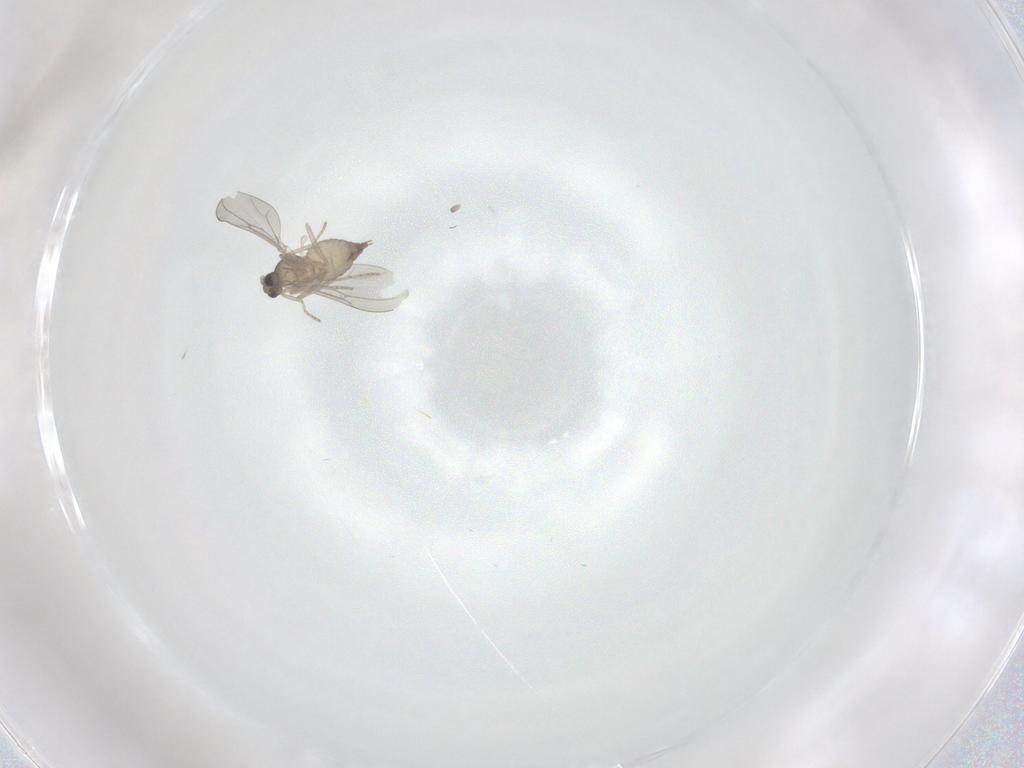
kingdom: Animalia
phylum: Arthropoda
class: Insecta
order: Diptera
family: Cecidomyiidae
